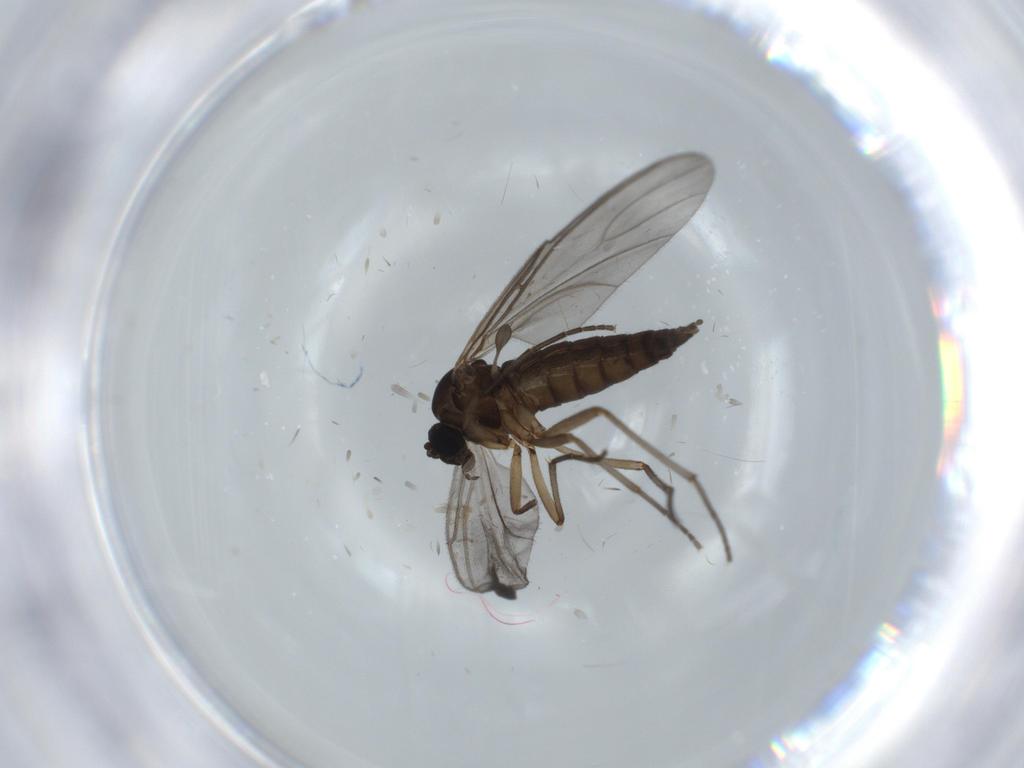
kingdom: Animalia
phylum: Arthropoda
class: Insecta
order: Diptera
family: Sciaridae
